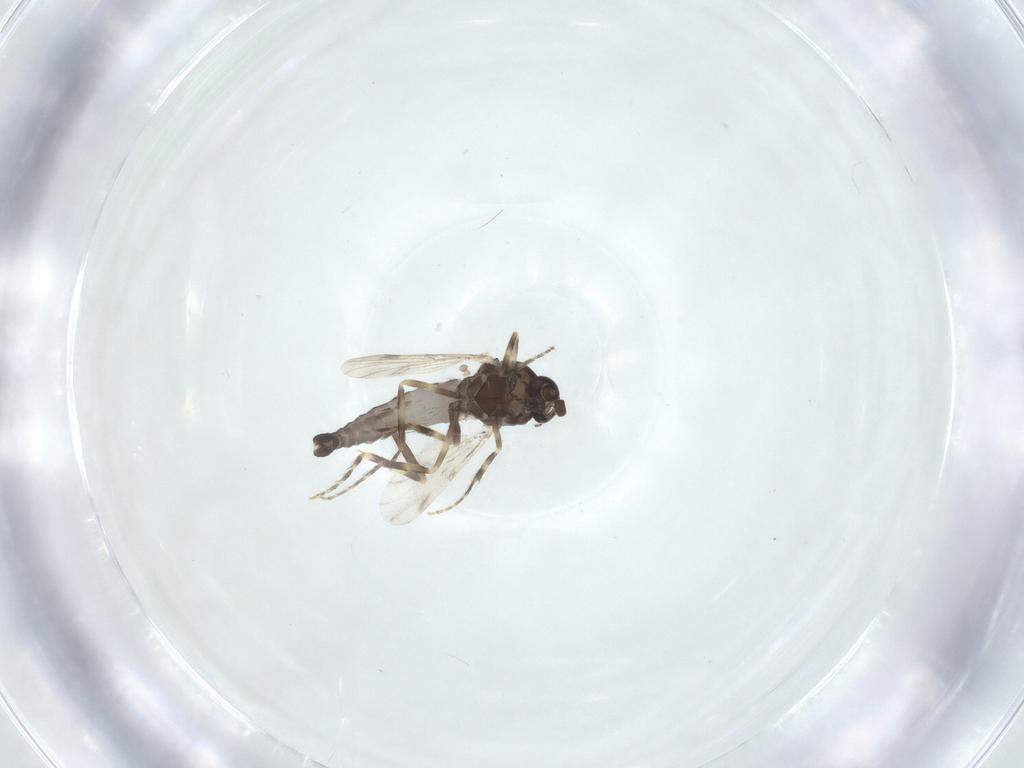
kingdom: Animalia
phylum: Arthropoda
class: Insecta
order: Diptera
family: Ceratopogonidae
